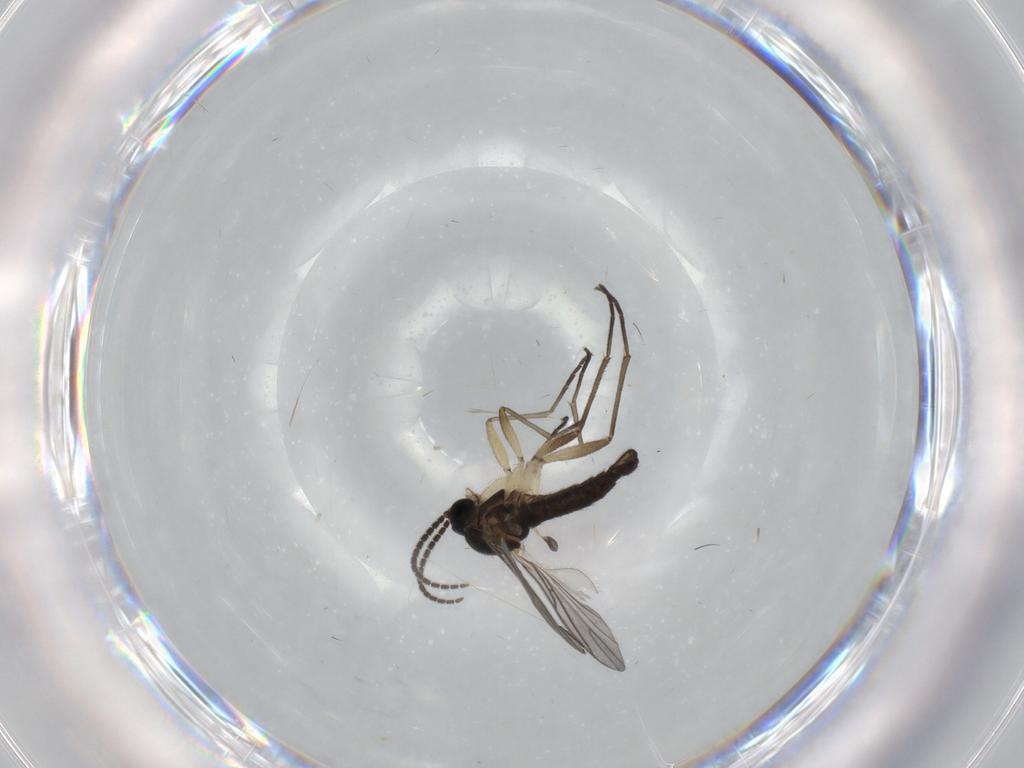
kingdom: Animalia
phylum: Arthropoda
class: Insecta
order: Diptera
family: Sciaridae
